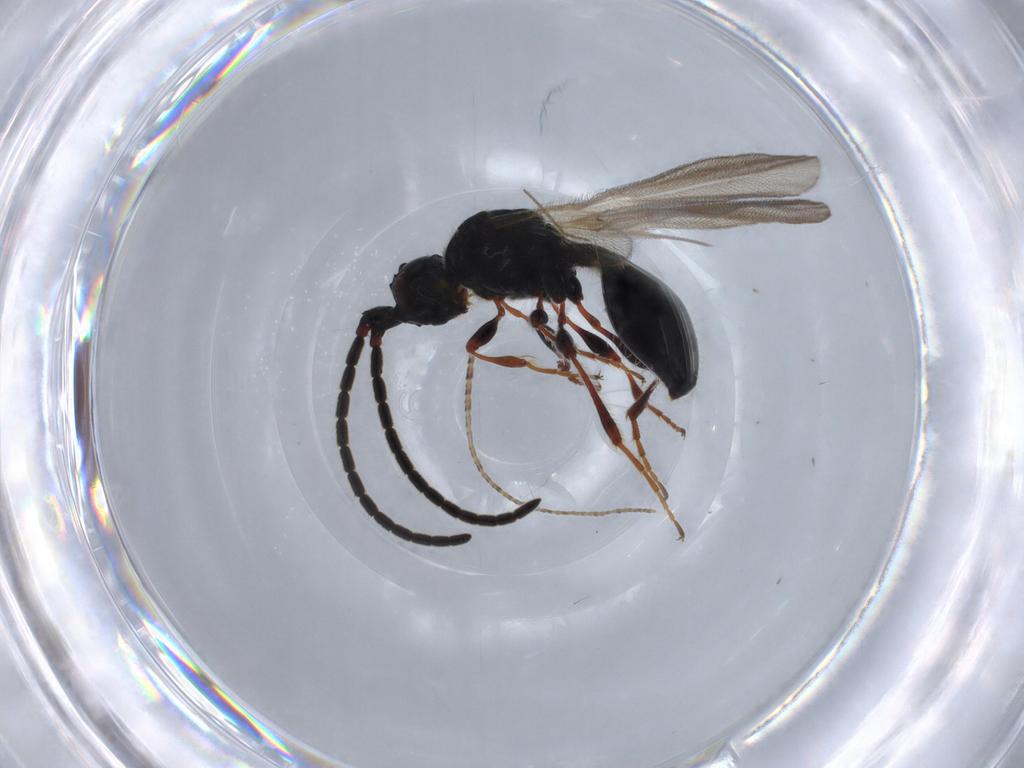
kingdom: Animalia
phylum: Arthropoda
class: Insecta
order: Hymenoptera
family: Diapriidae
